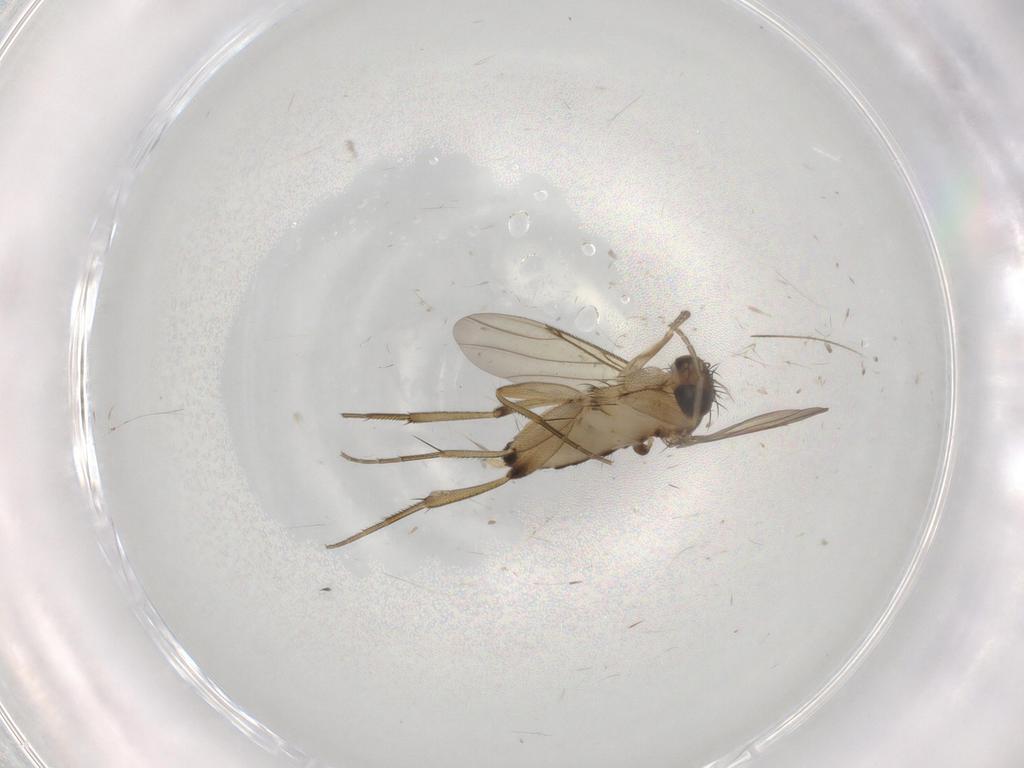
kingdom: Animalia
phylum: Arthropoda
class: Insecta
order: Diptera
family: Phoridae
